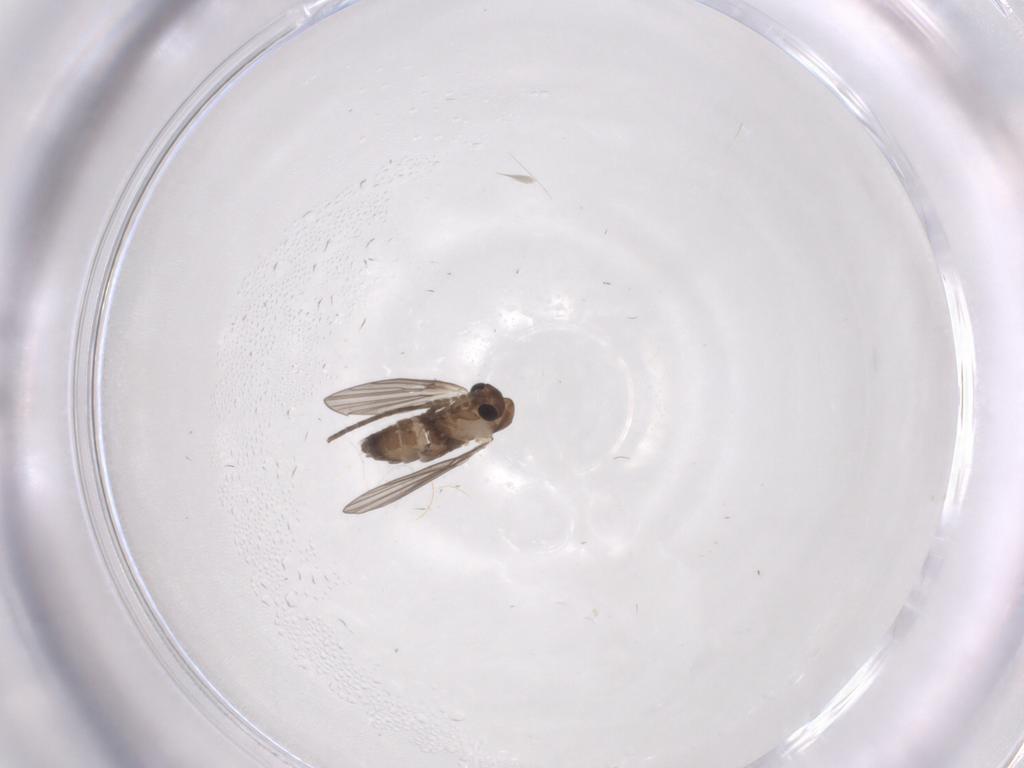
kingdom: Animalia
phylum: Arthropoda
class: Insecta
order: Diptera
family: Psychodidae
